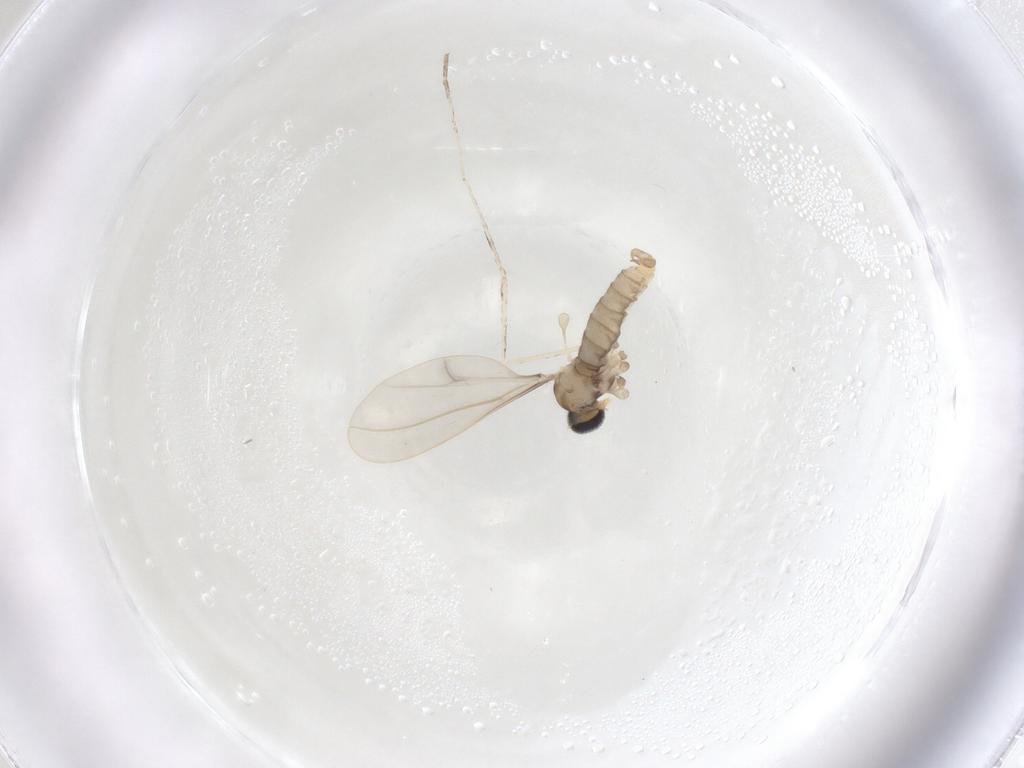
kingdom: Animalia
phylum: Arthropoda
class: Insecta
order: Diptera
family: Cecidomyiidae
